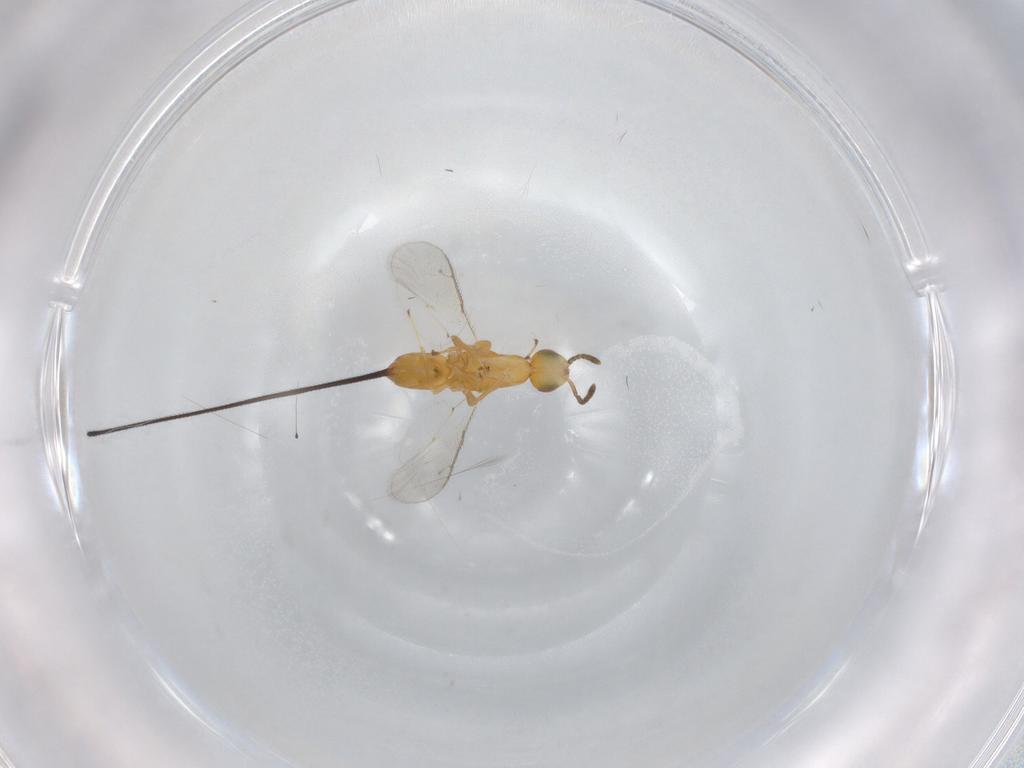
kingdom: Animalia
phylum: Arthropoda
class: Insecta
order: Hymenoptera
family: Pteromalidae
